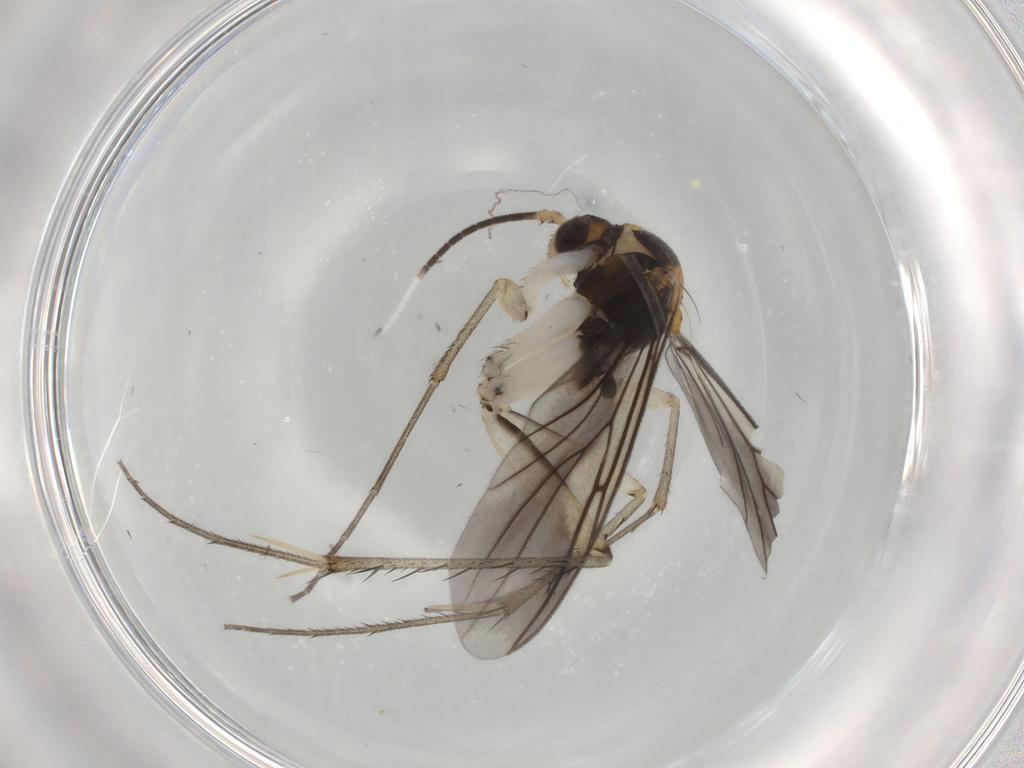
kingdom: Animalia
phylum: Arthropoda
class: Insecta
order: Diptera
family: Mycetophilidae
